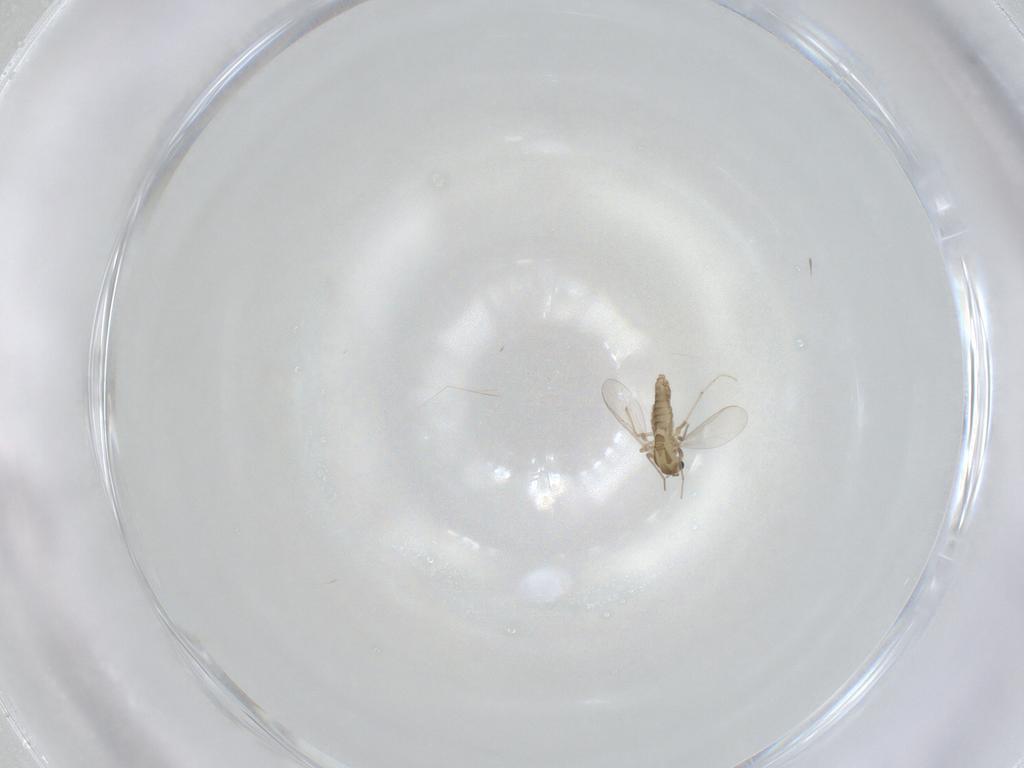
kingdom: Animalia
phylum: Arthropoda
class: Insecta
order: Diptera
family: Chironomidae
